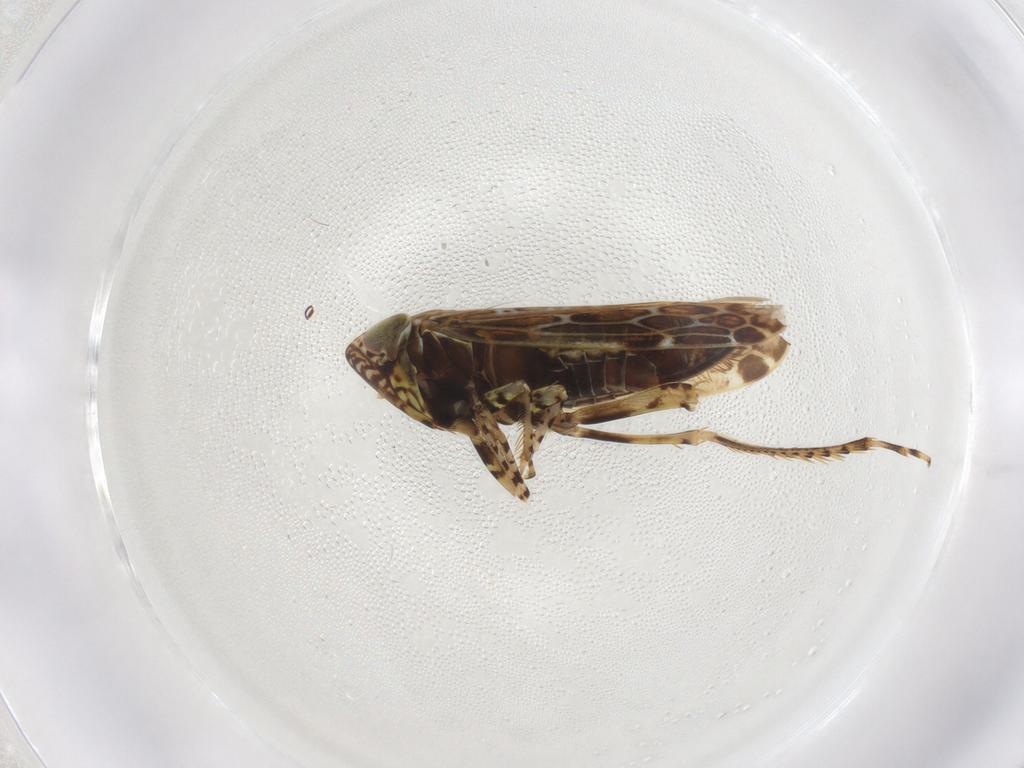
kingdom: Animalia
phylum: Arthropoda
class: Insecta
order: Hemiptera
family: Cicadellidae
